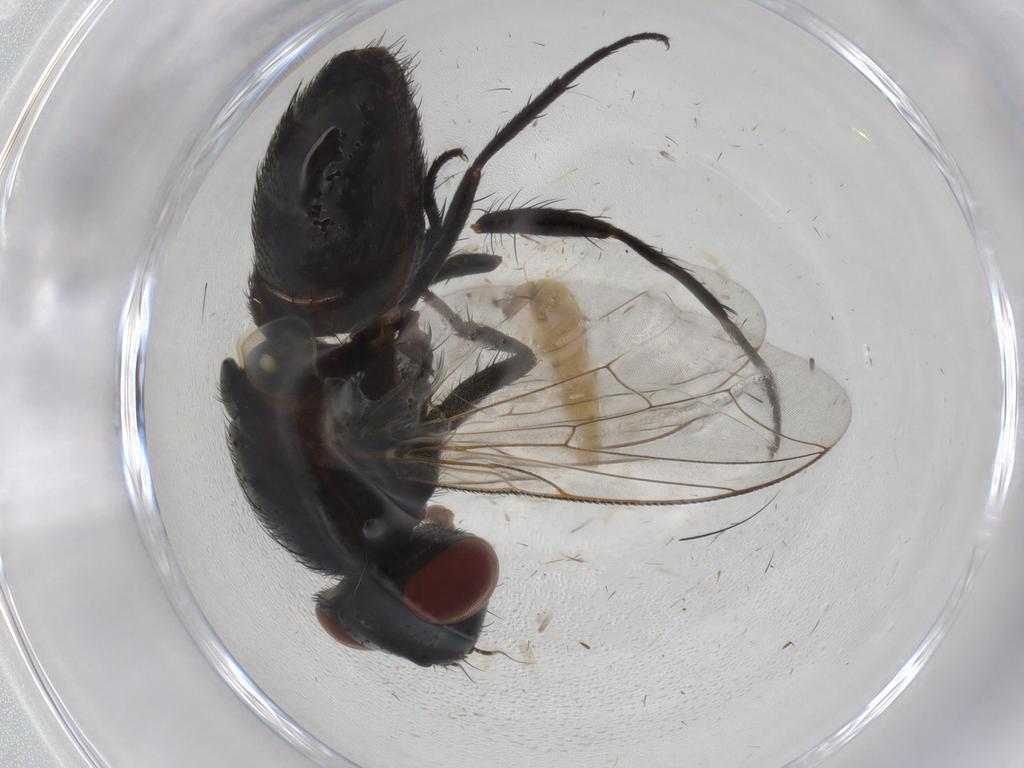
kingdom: Animalia
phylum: Arthropoda
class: Insecta
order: Diptera
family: Sarcophagidae
